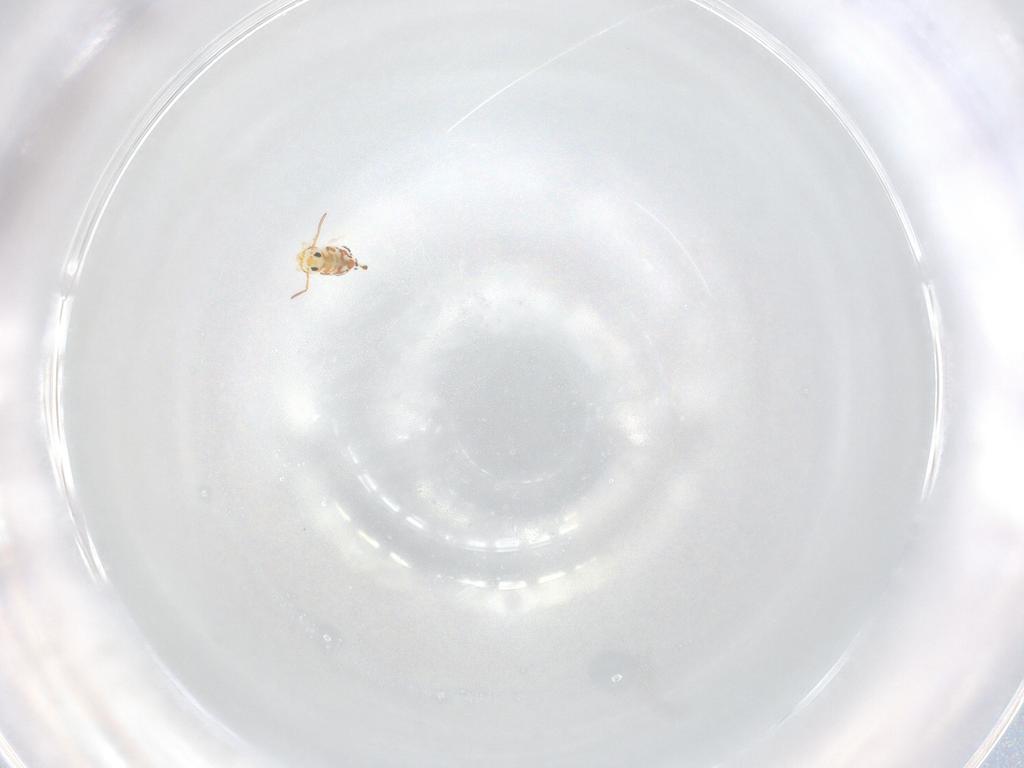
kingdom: Animalia
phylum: Arthropoda
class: Collembola
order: Symphypleona
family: Bourletiellidae
